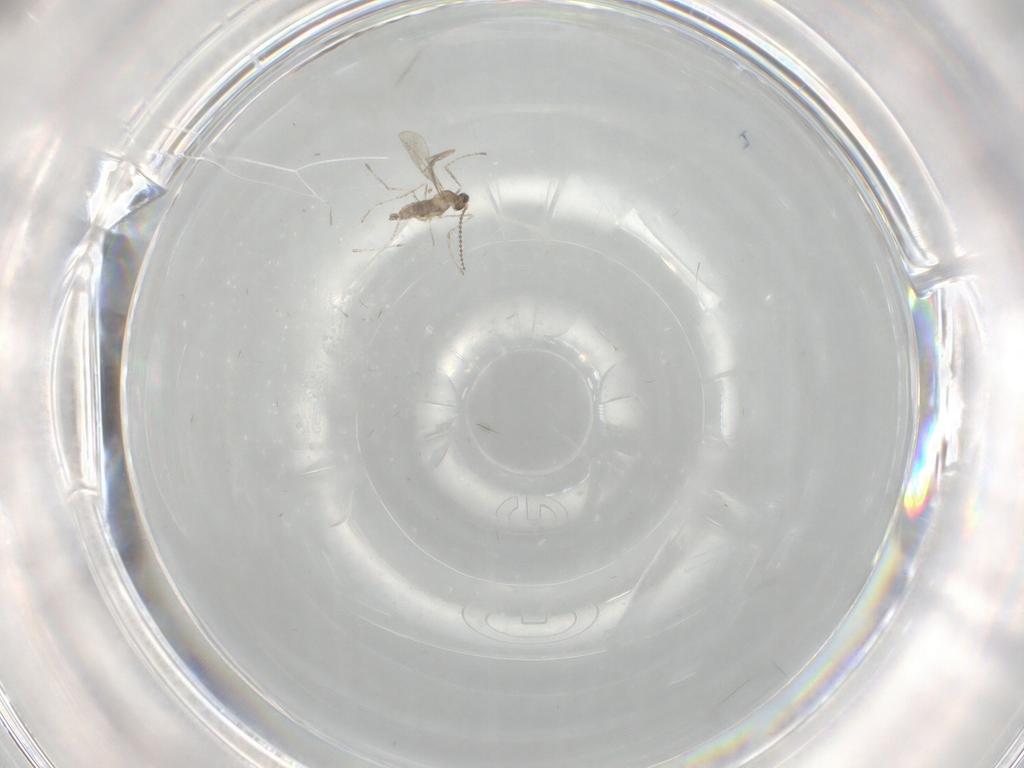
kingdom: Animalia
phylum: Arthropoda
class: Insecta
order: Diptera
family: Cecidomyiidae
